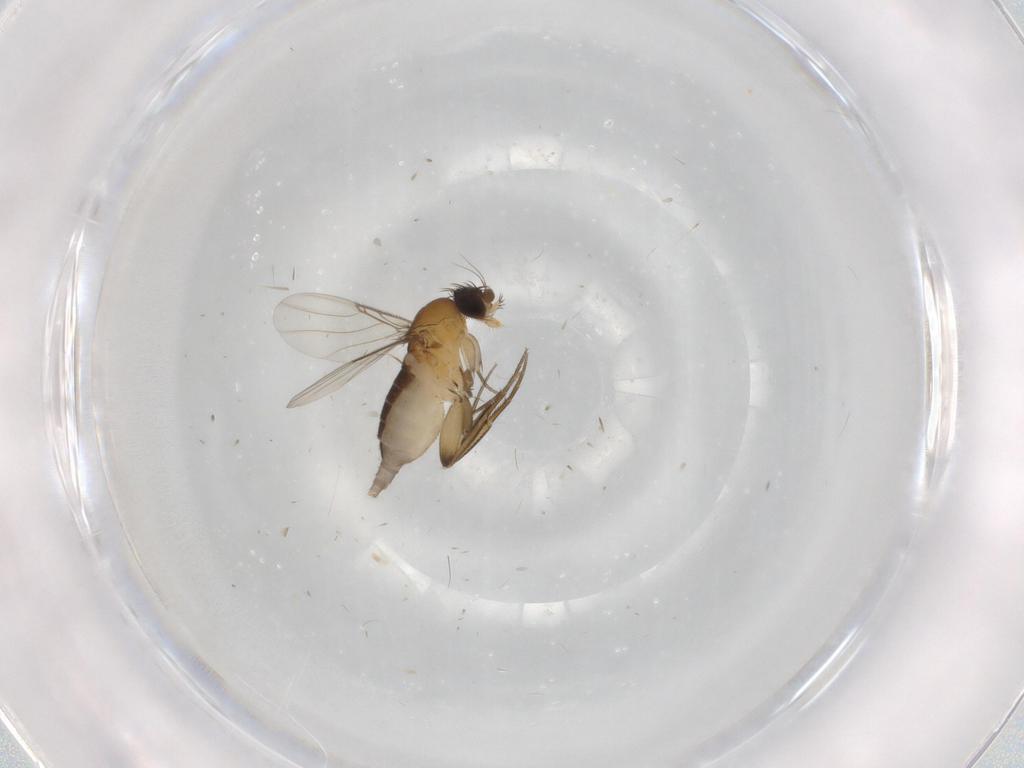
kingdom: Animalia
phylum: Arthropoda
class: Insecta
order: Diptera
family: Phoridae
